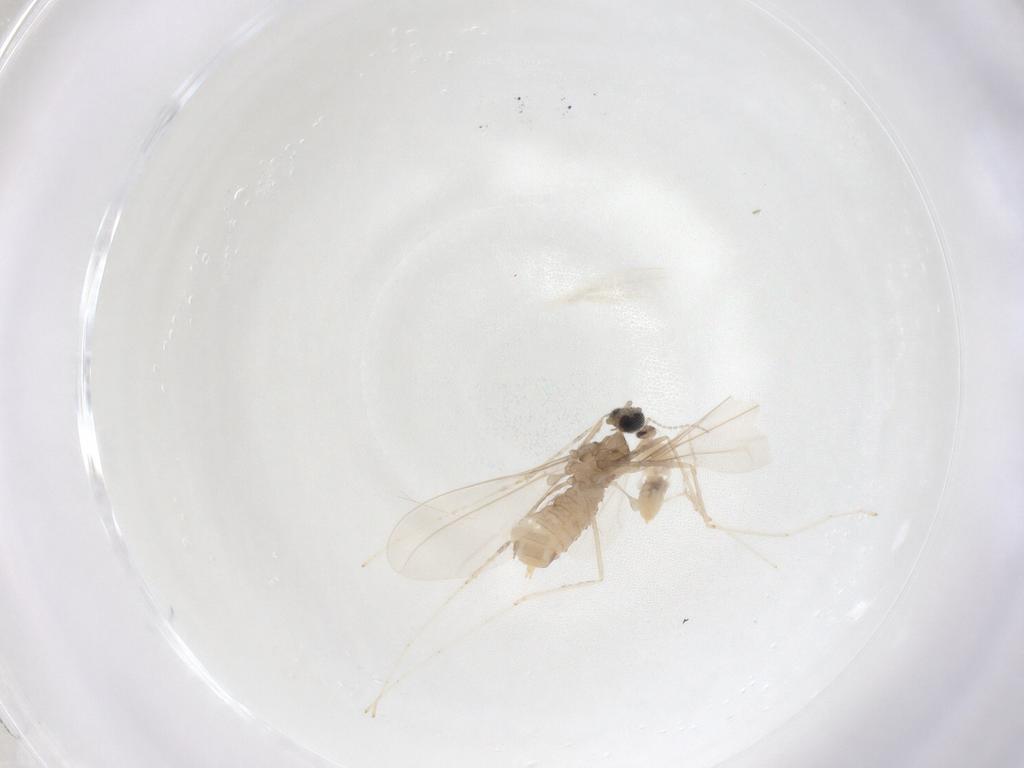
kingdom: Animalia
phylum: Arthropoda
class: Insecta
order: Diptera
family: Cecidomyiidae
